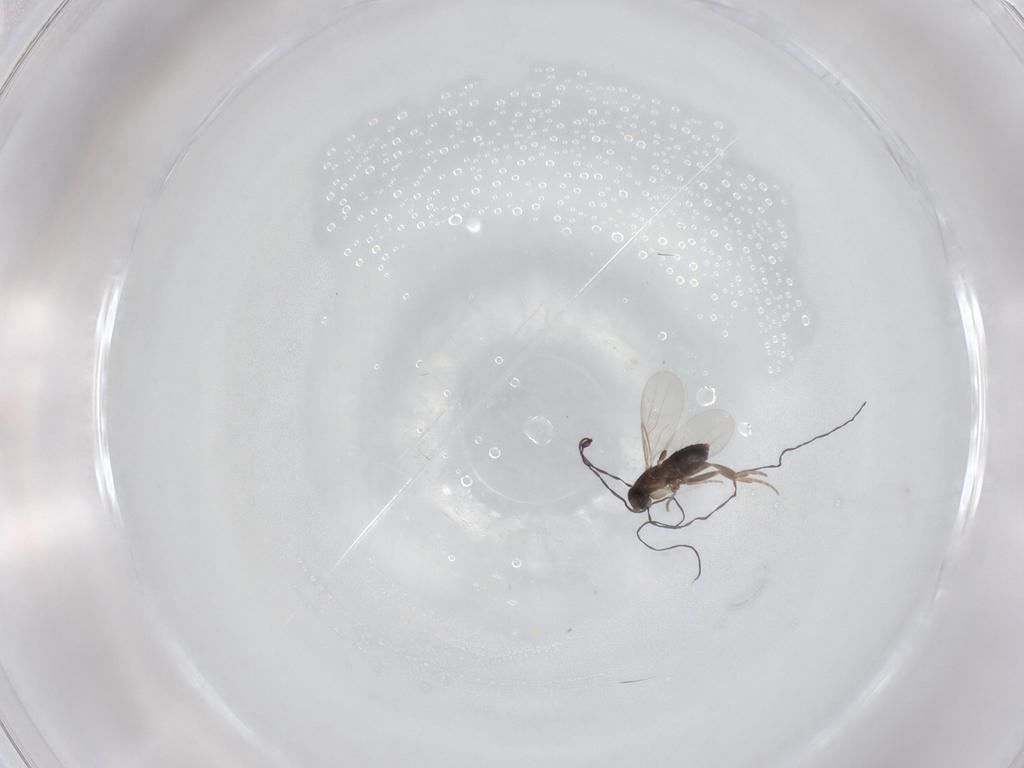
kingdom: Animalia
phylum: Arthropoda
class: Insecta
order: Diptera
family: Phoridae
